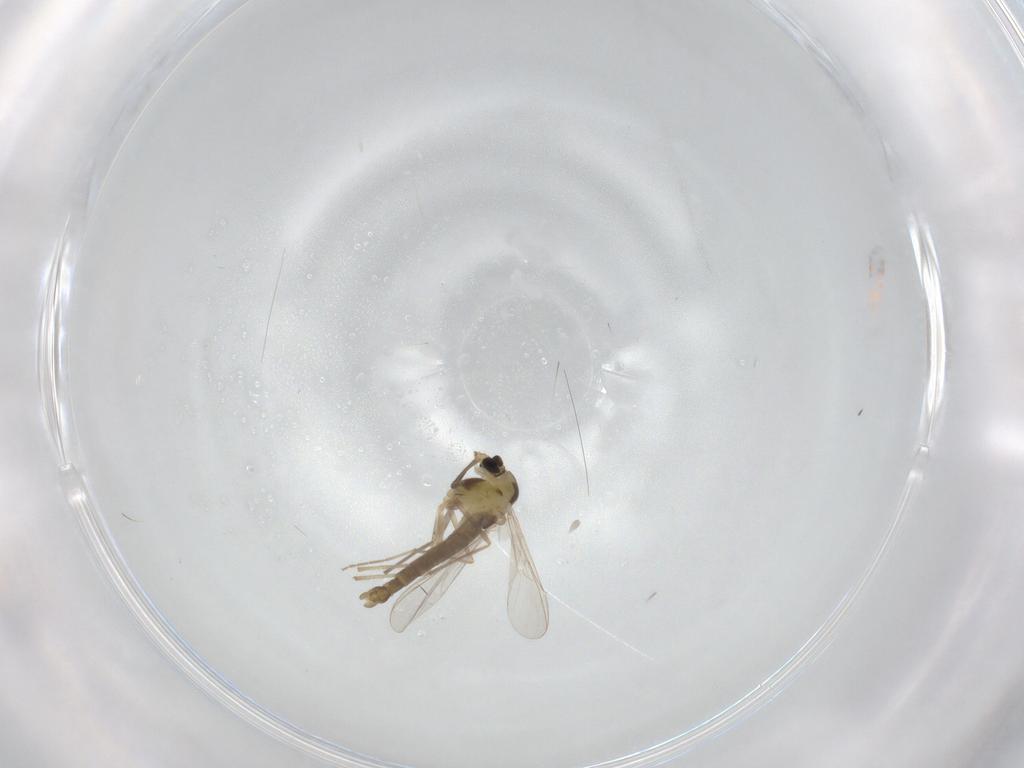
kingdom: Animalia
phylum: Arthropoda
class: Insecta
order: Diptera
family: Chironomidae
